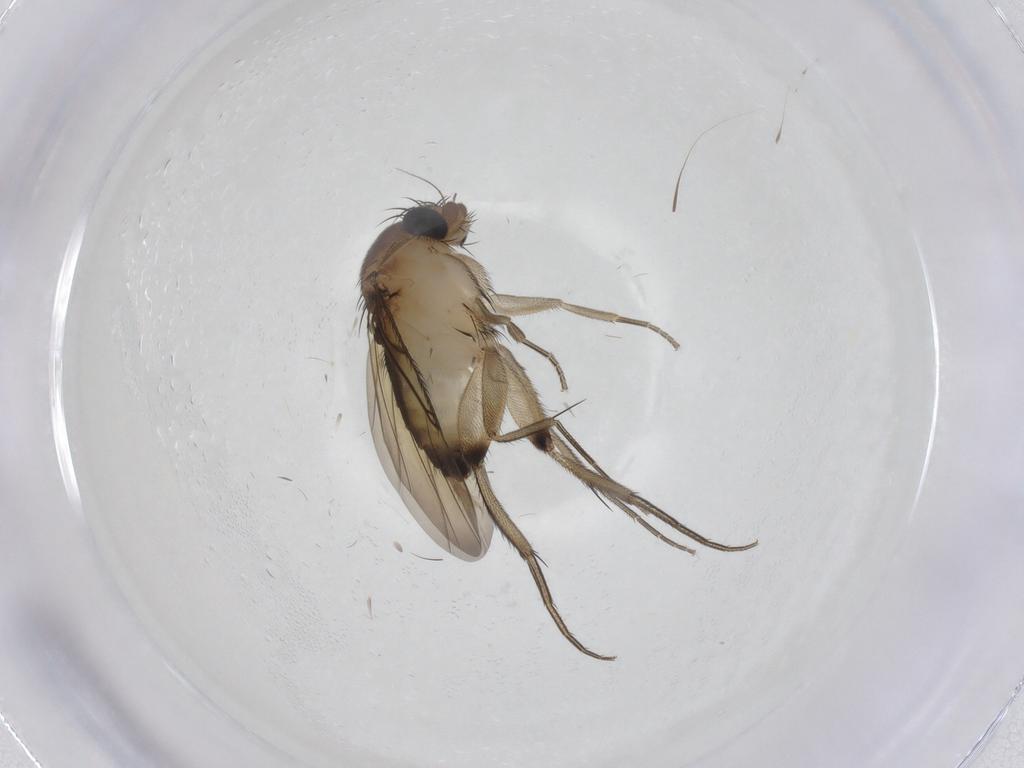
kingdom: Animalia
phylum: Arthropoda
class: Insecta
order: Diptera
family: Phoridae
